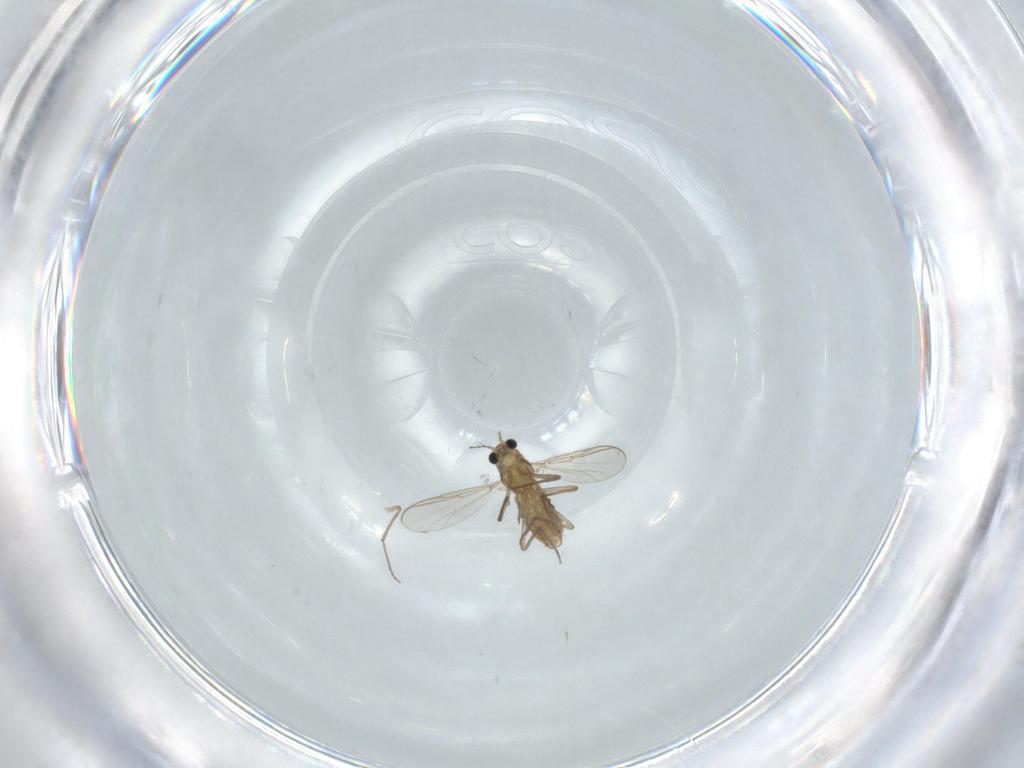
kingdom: Animalia
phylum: Arthropoda
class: Insecta
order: Diptera
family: Chironomidae
